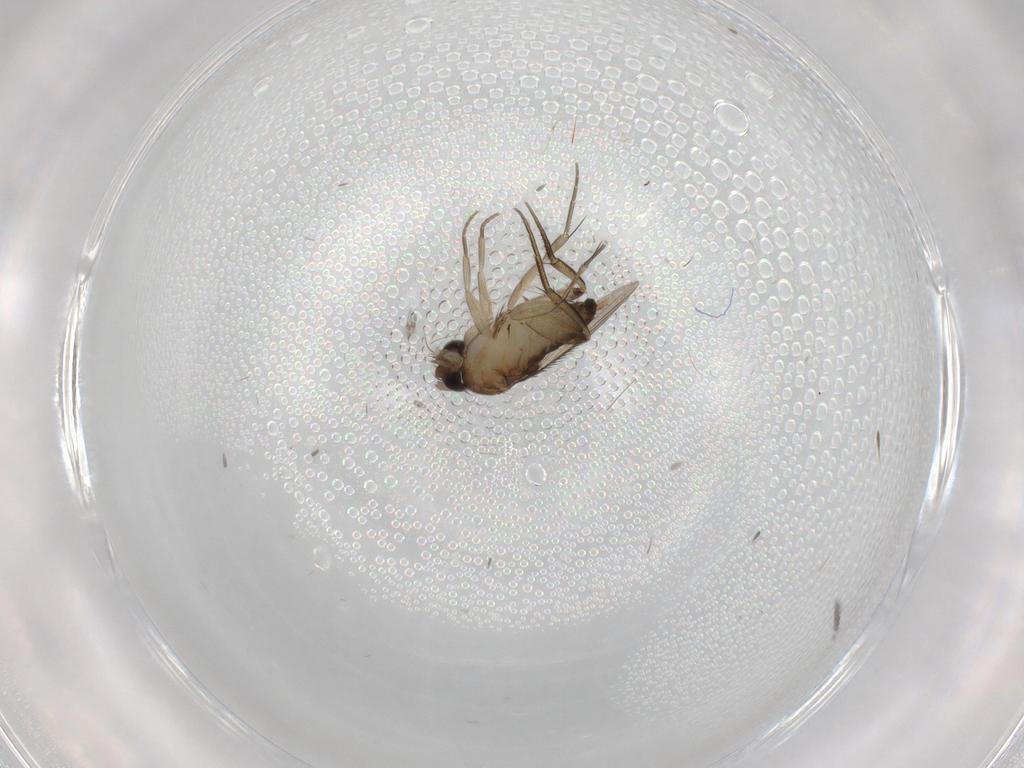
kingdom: Animalia
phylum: Arthropoda
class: Insecta
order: Diptera
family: Phoridae
